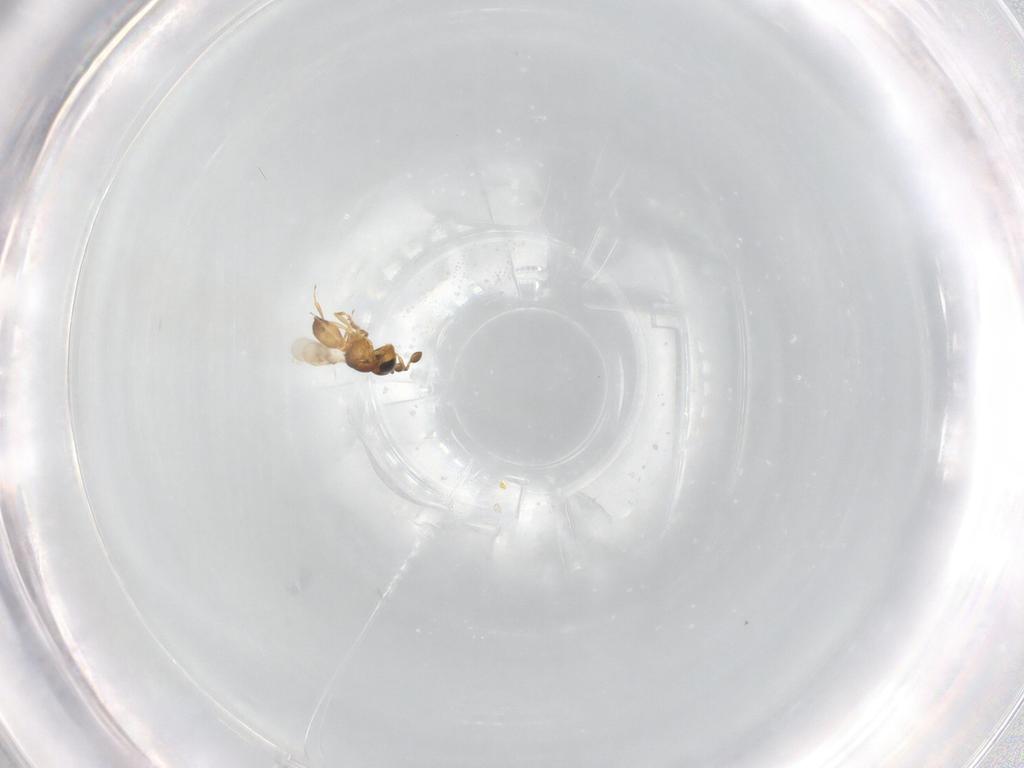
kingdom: Animalia
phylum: Arthropoda
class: Insecta
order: Hymenoptera
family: Scelionidae
